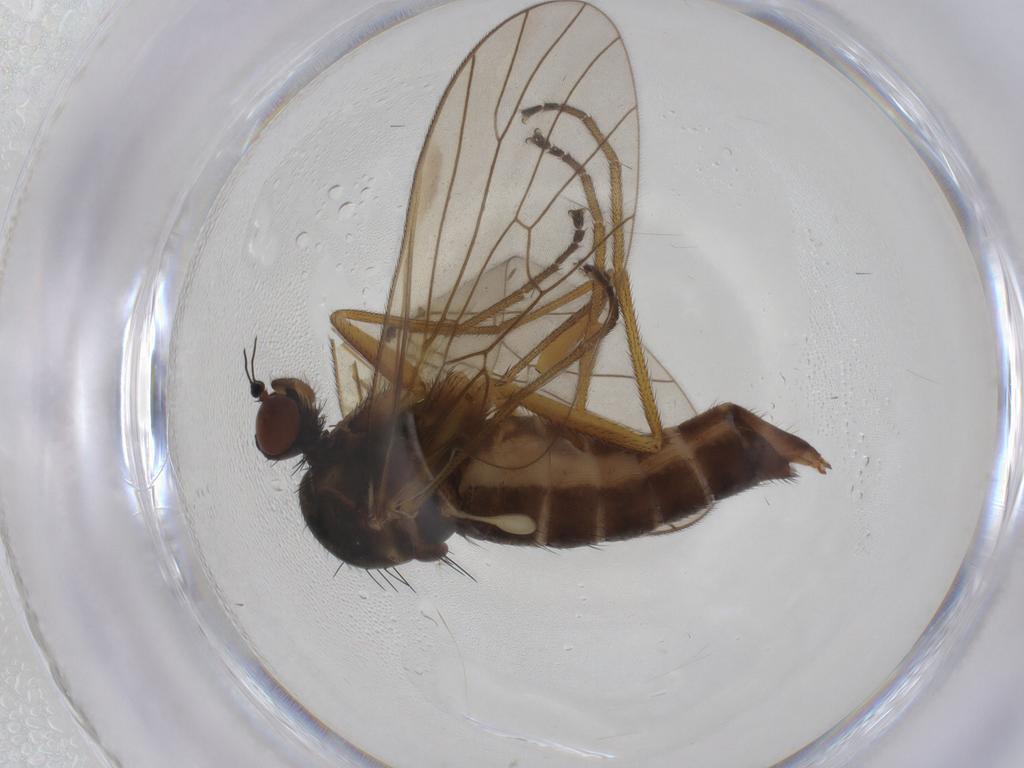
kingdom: Animalia
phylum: Arthropoda
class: Insecta
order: Diptera
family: Brachystomatidae
